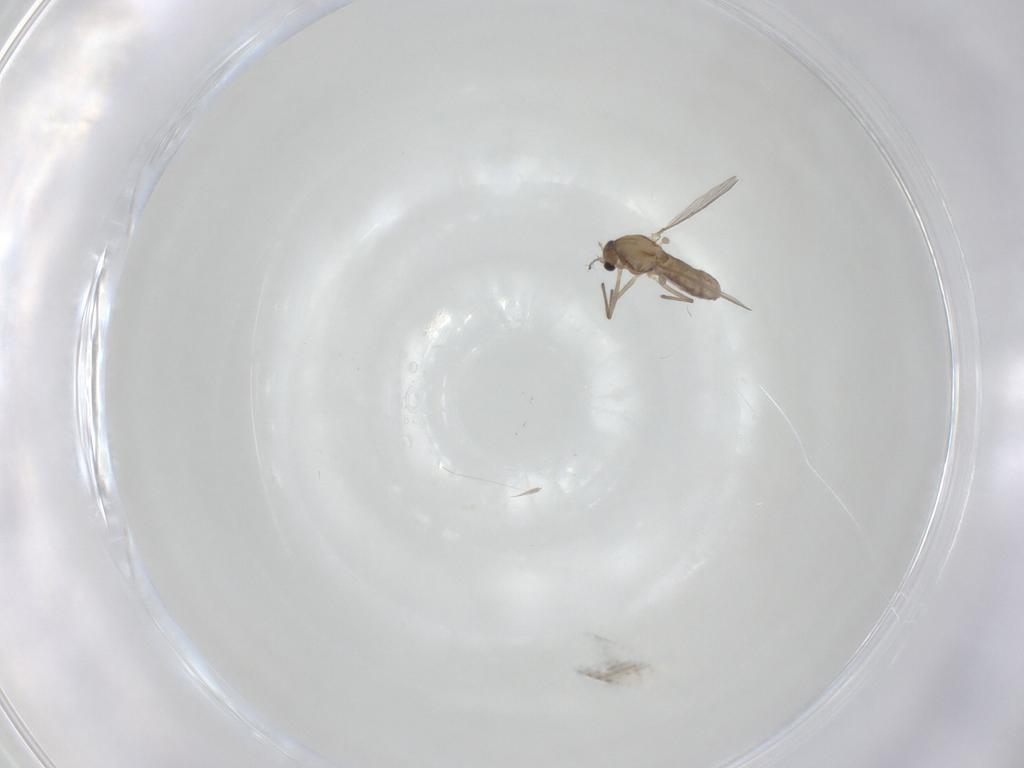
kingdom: Animalia
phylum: Arthropoda
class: Insecta
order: Diptera
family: Chironomidae
